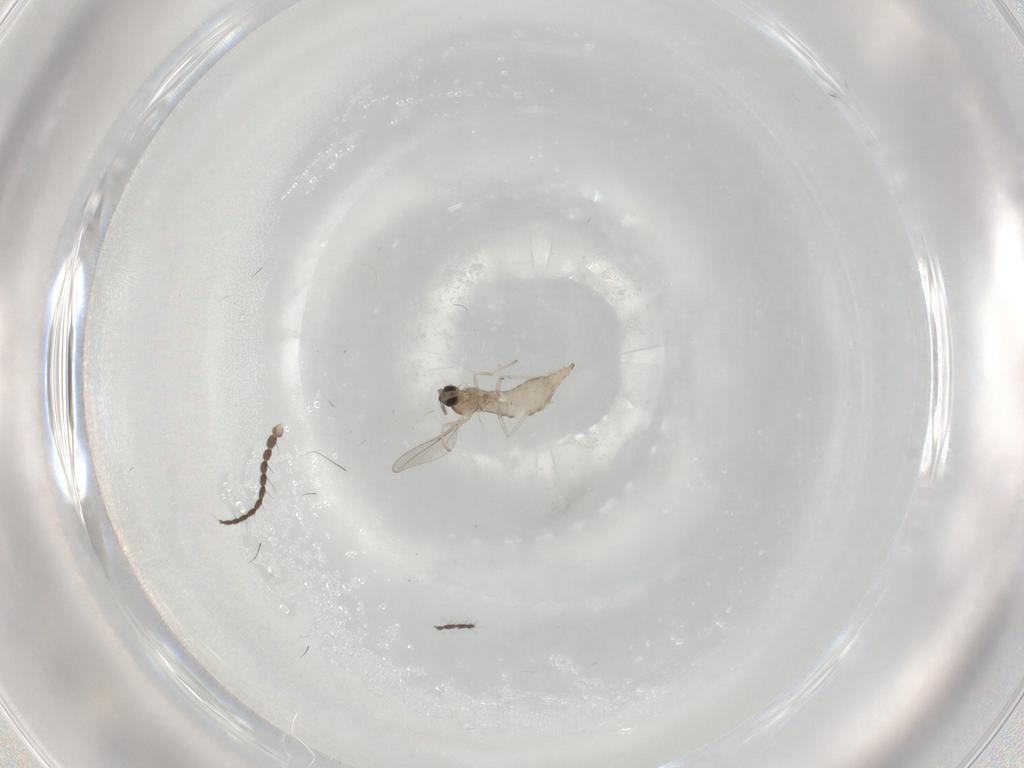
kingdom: Animalia
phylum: Arthropoda
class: Insecta
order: Diptera
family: Cecidomyiidae
